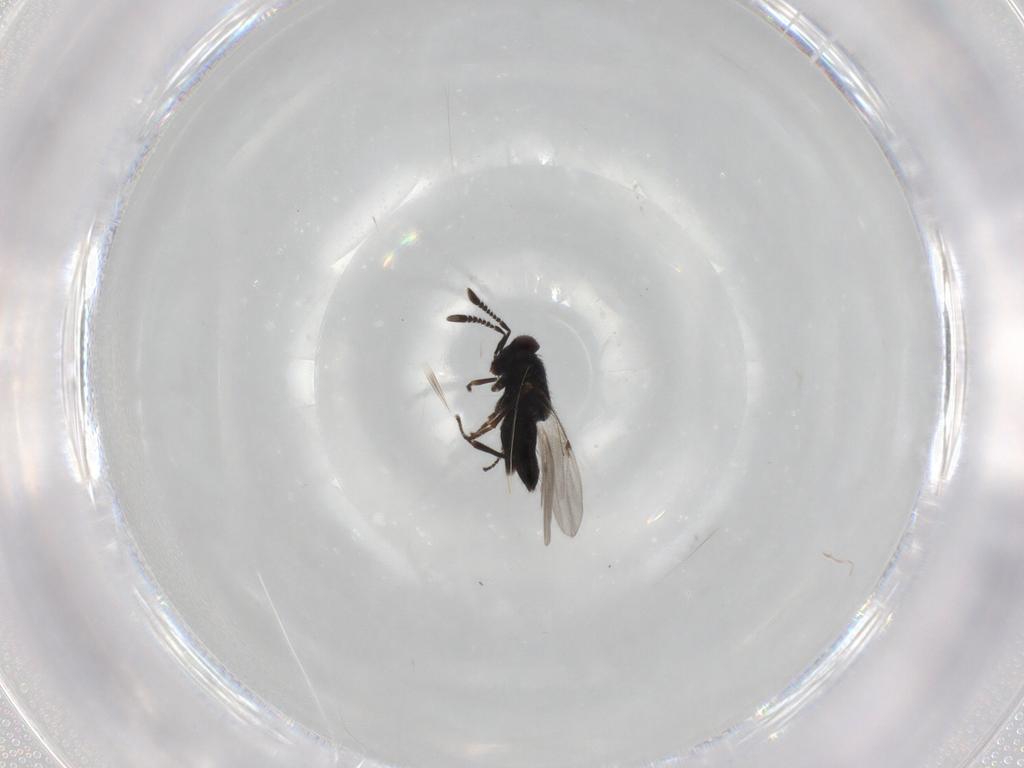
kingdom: Animalia
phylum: Arthropoda
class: Insecta
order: Hymenoptera
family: Encyrtidae
